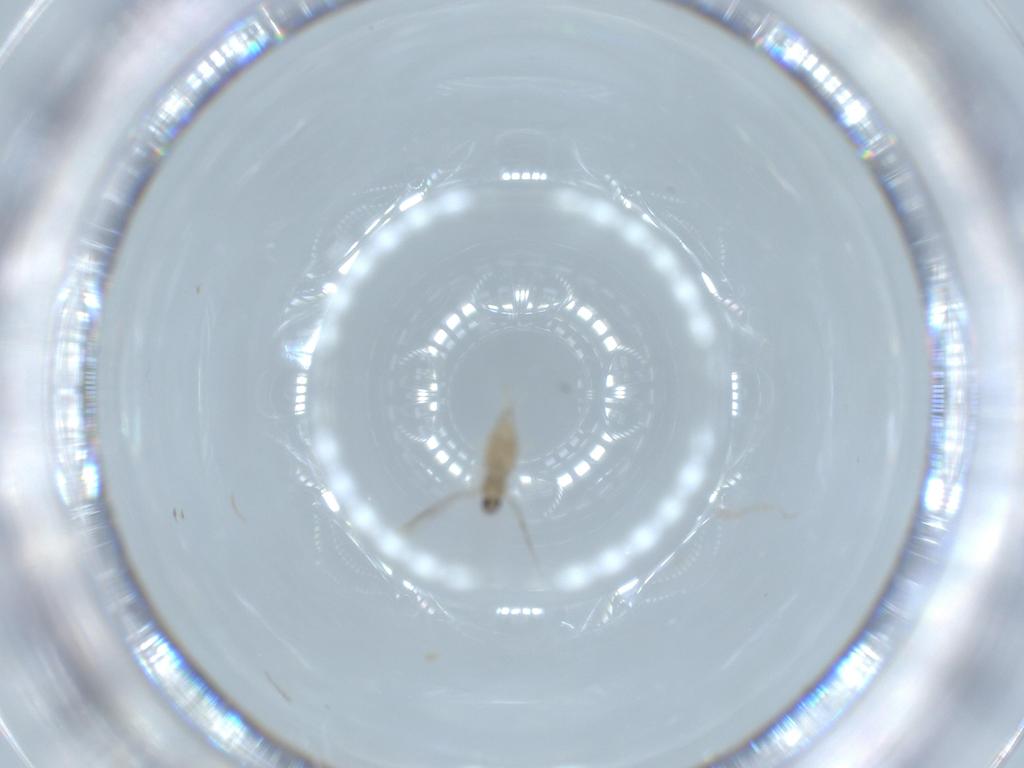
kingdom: Animalia
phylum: Arthropoda
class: Insecta
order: Diptera
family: Cecidomyiidae
